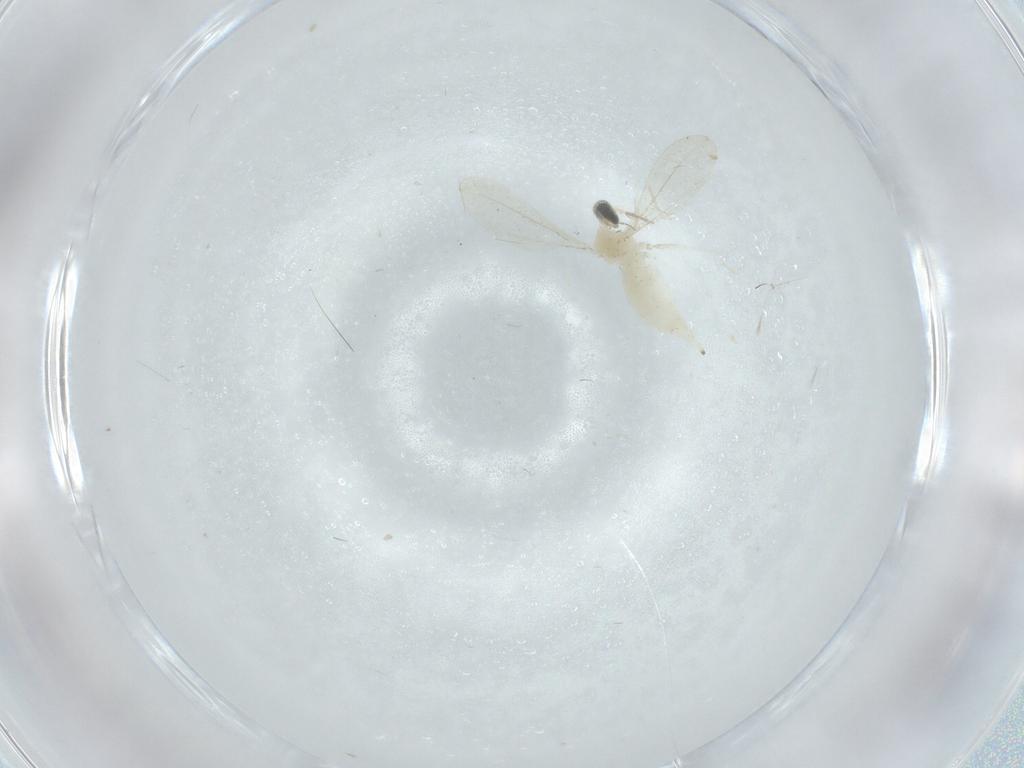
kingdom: Animalia
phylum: Arthropoda
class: Insecta
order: Diptera
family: Cecidomyiidae
